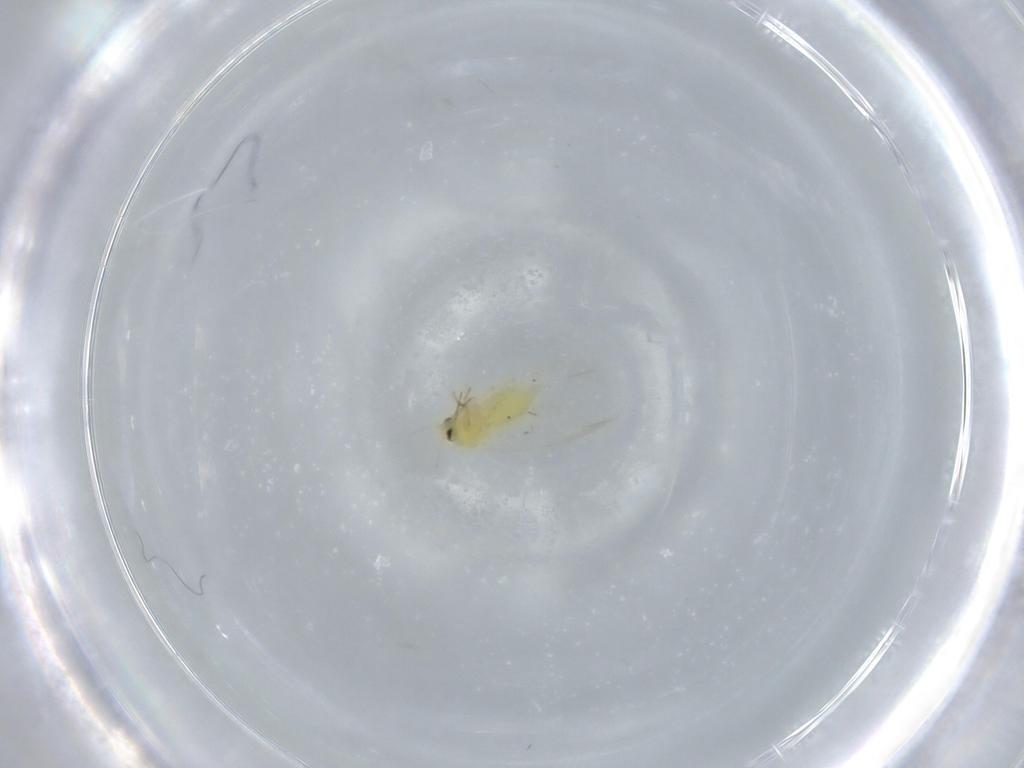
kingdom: Animalia
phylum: Arthropoda
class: Insecta
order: Hemiptera
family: Aleyrodidae
